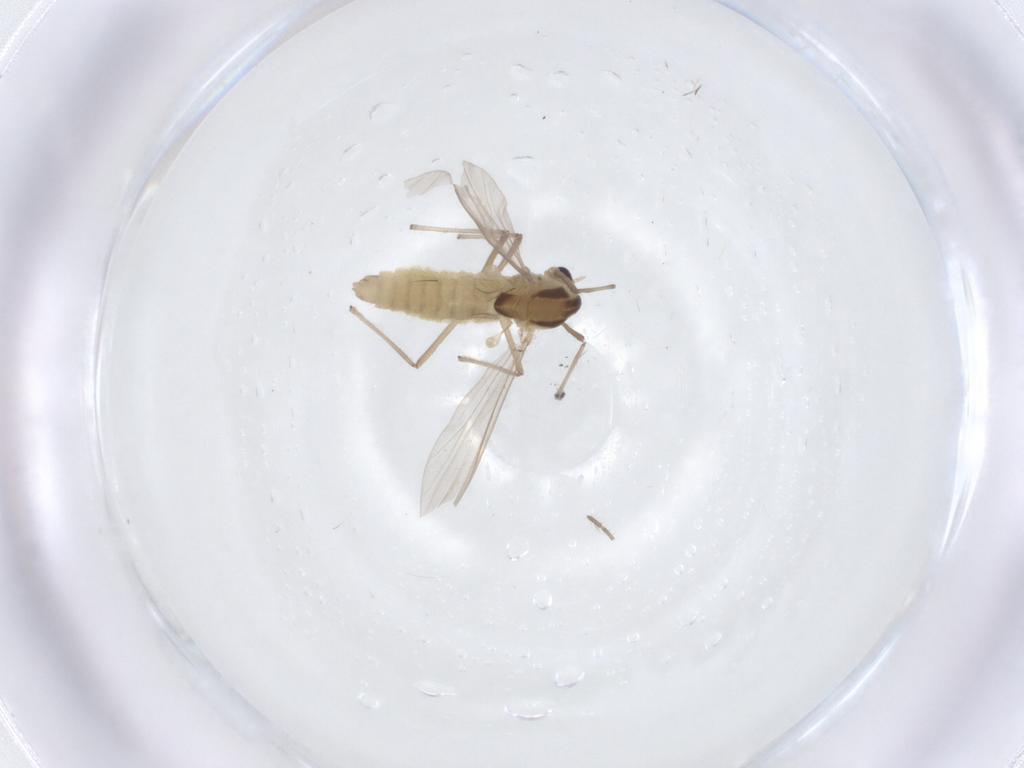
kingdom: Animalia
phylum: Arthropoda
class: Insecta
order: Diptera
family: Chironomidae
